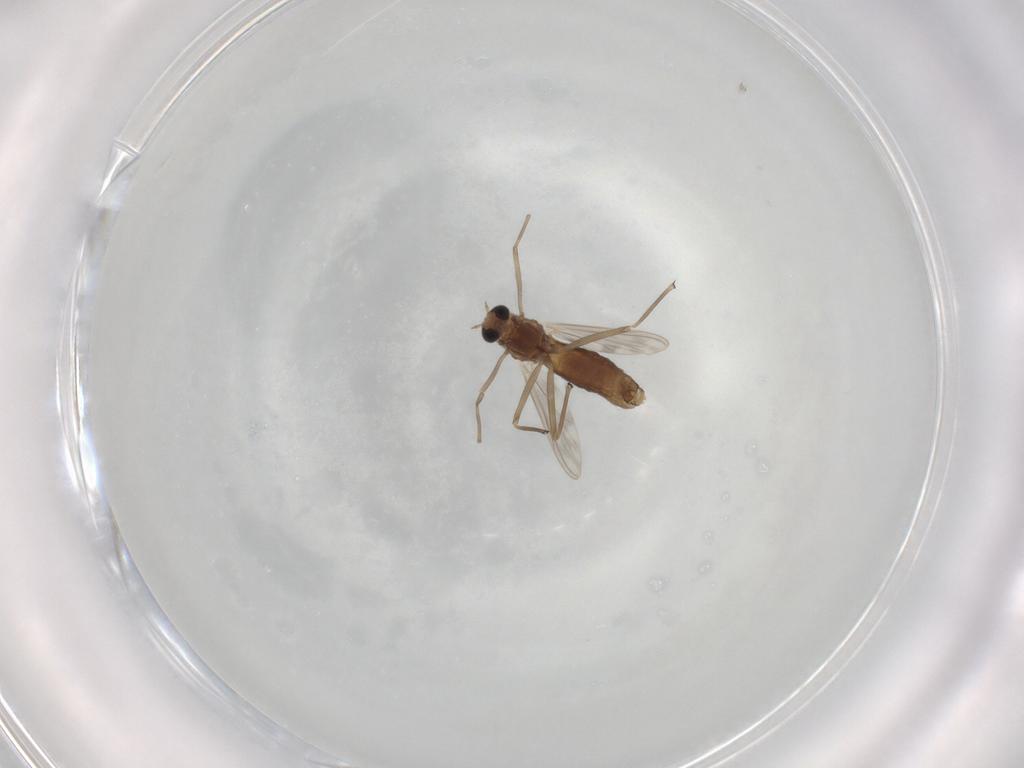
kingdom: Animalia
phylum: Arthropoda
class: Insecta
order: Diptera
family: Chironomidae
